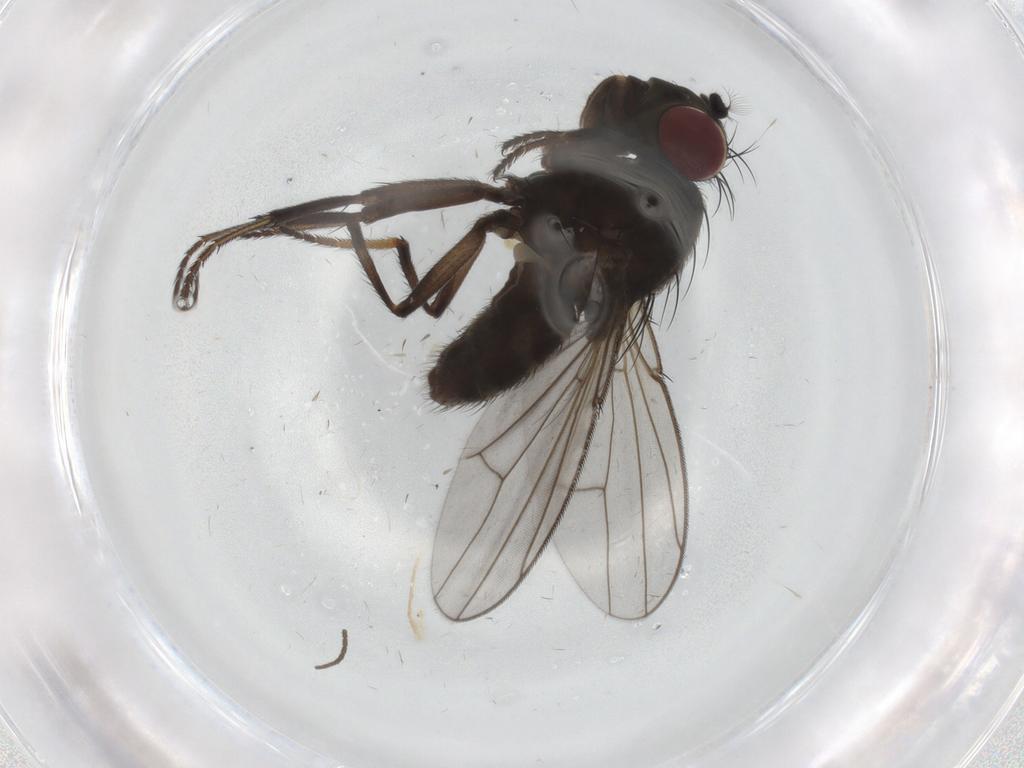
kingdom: Animalia
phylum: Arthropoda
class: Insecta
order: Diptera
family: Ephydridae
